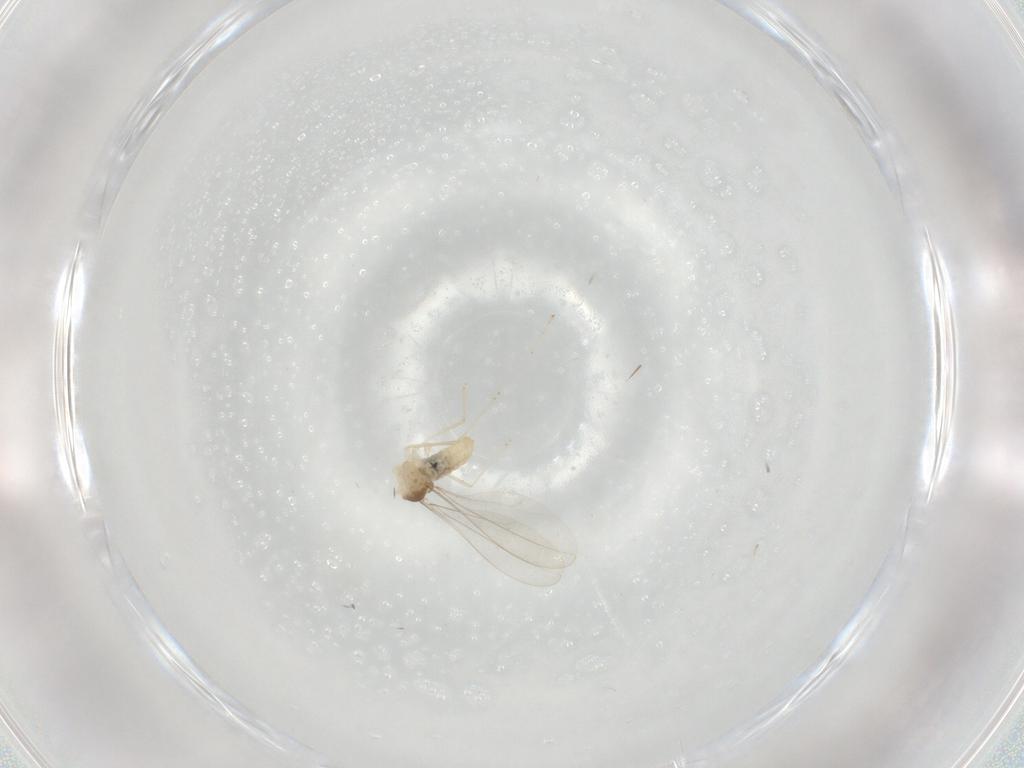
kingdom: Animalia
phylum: Arthropoda
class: Insecta
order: Diptera
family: Cecidomyiidae
